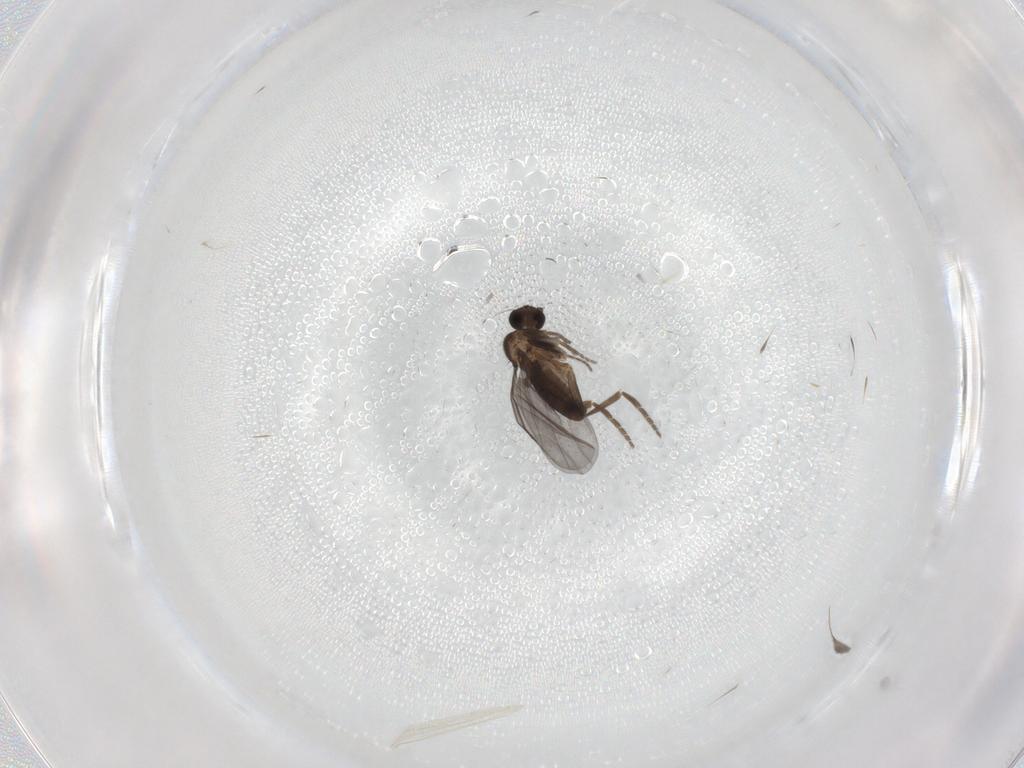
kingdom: Animalia
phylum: Arthropoda
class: Insecta
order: Diptera
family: Phoridae
